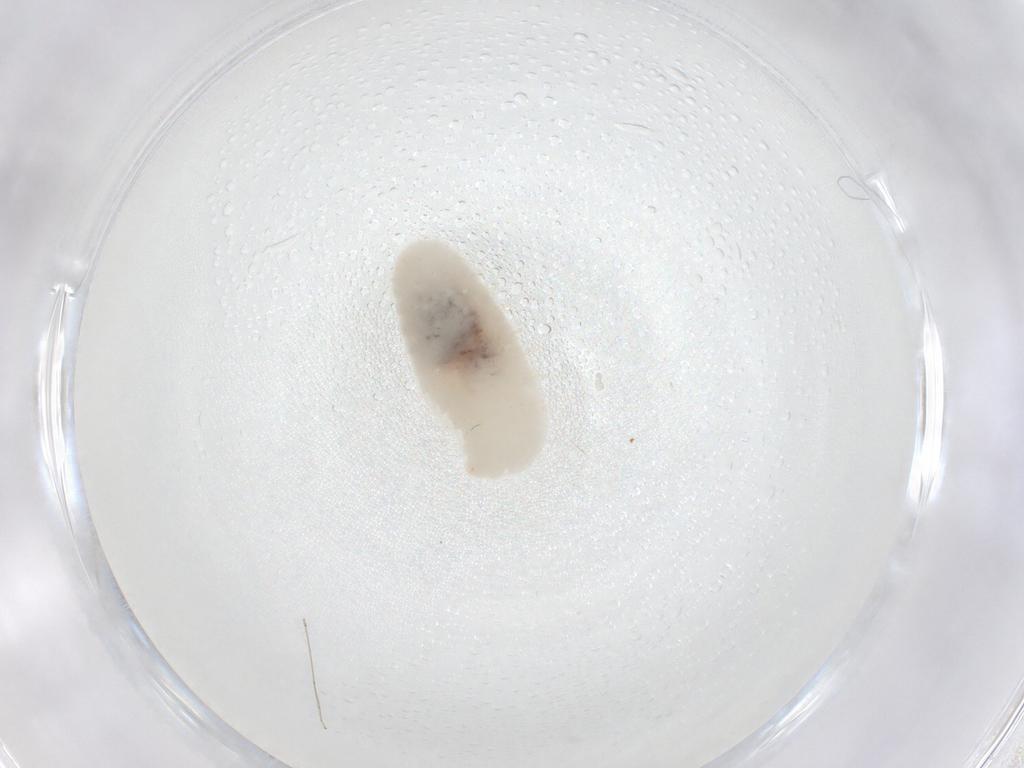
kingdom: Animalia
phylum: Arthropoda
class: Insecta
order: Hymenoptera
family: Formicidae
